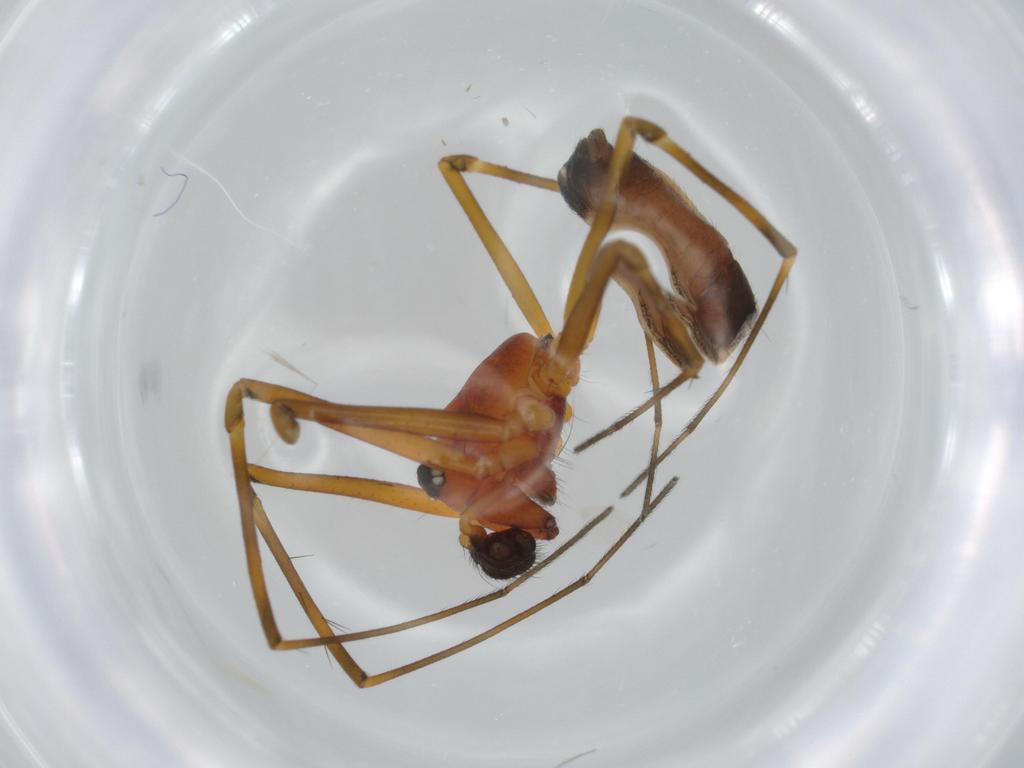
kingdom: Animalia
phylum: Arthropoda
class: Arachnida
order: Araneae
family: Linyphiidae
